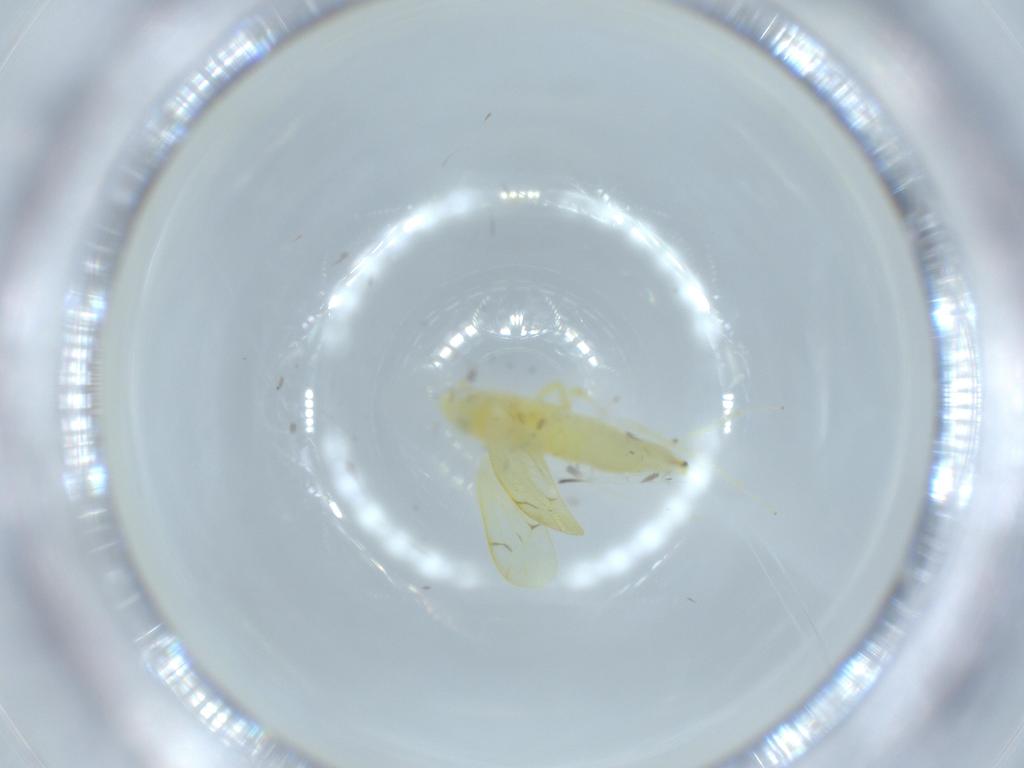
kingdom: Animalia
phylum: Arthropoda
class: Insecta
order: Hemiptera
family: Cicadellidae
